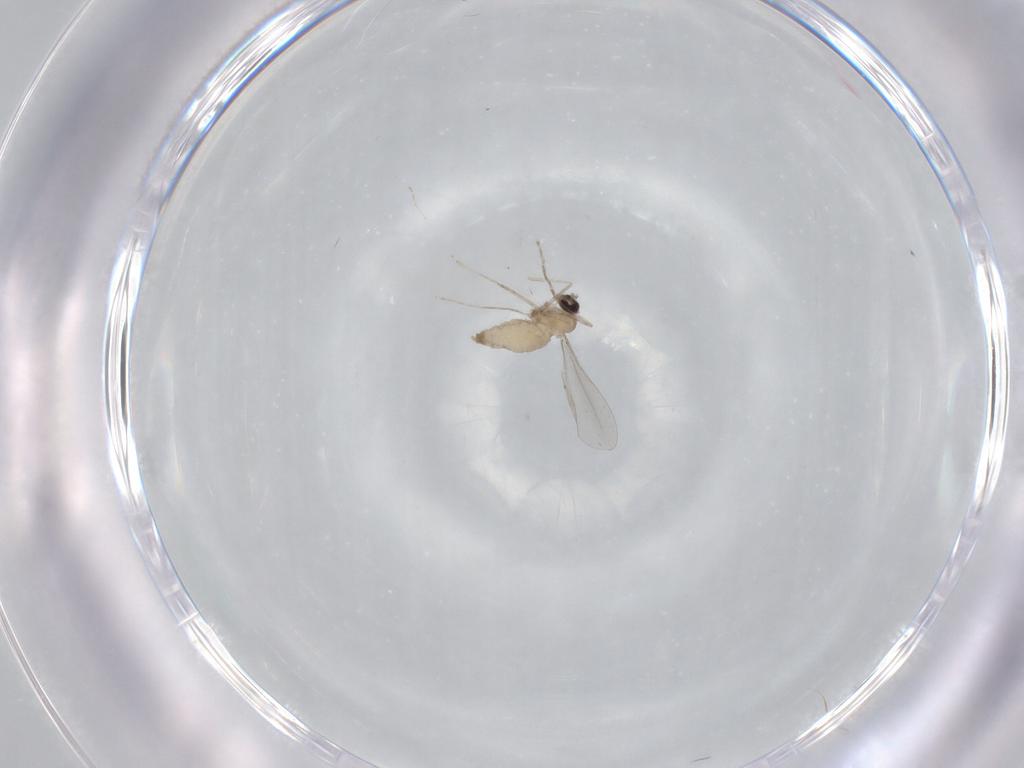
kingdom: Animalia
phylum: Arthropoda
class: Insecta
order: Diptera
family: Cecidomyiidae
